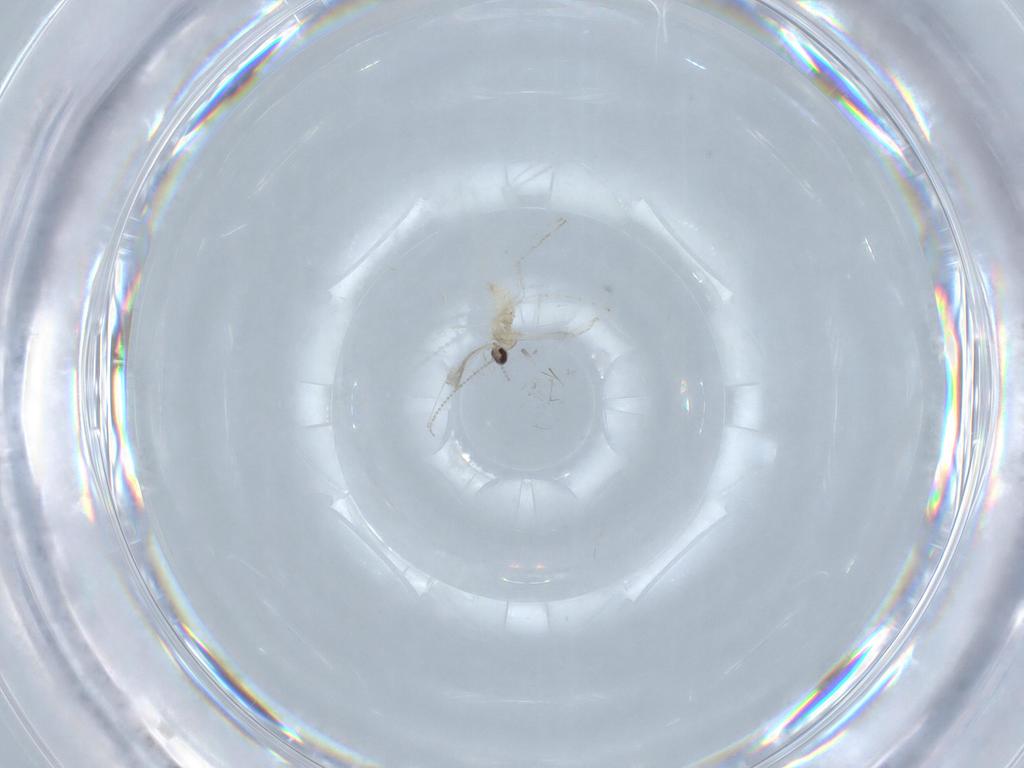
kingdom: Animalia
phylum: Arthropoda
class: Insecta
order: Diptera
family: Cecidomyiidae
